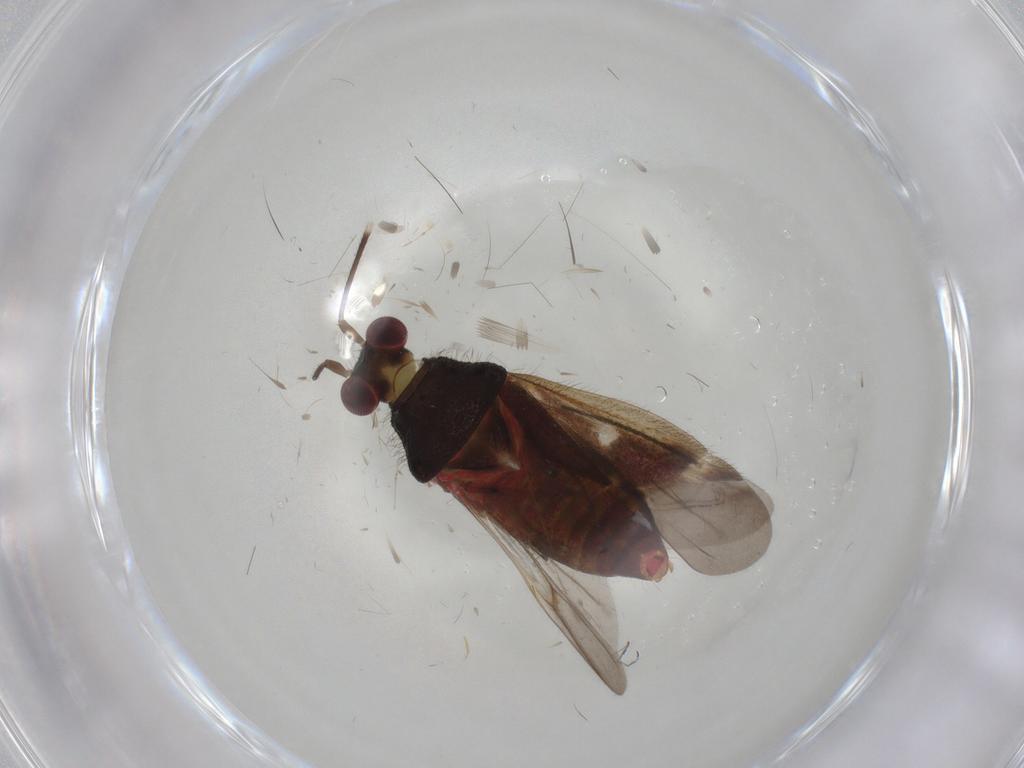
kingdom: Animalia
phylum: Arthropoda
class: Insecta
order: Hemiptera
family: Miridae
